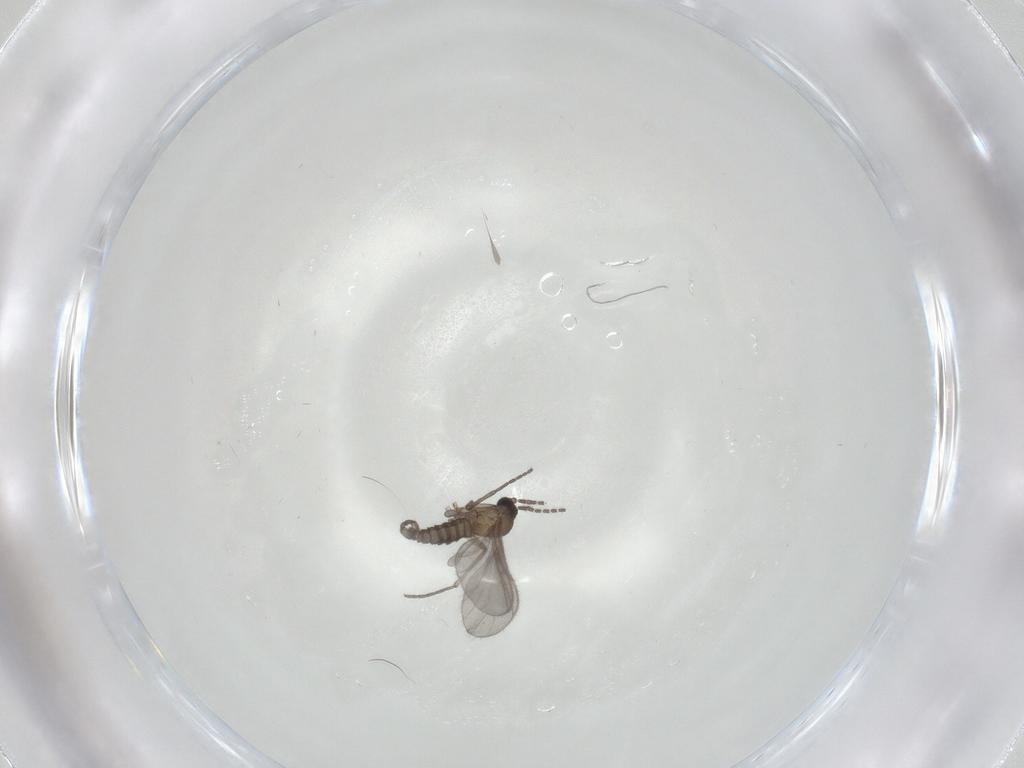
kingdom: Animalia
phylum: Arthropoda
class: Insecta
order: Diptera
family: Sciaridae
